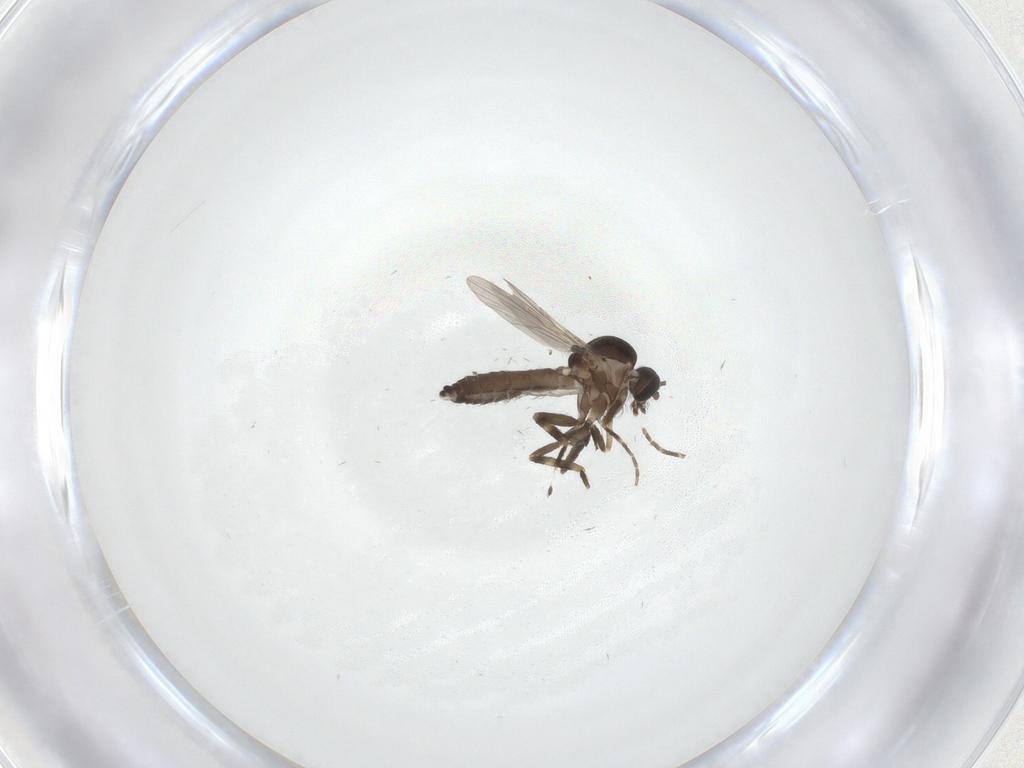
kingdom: Animalia
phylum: Arthropoda
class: Insecta
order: Diptera
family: Ceratopogonidae
